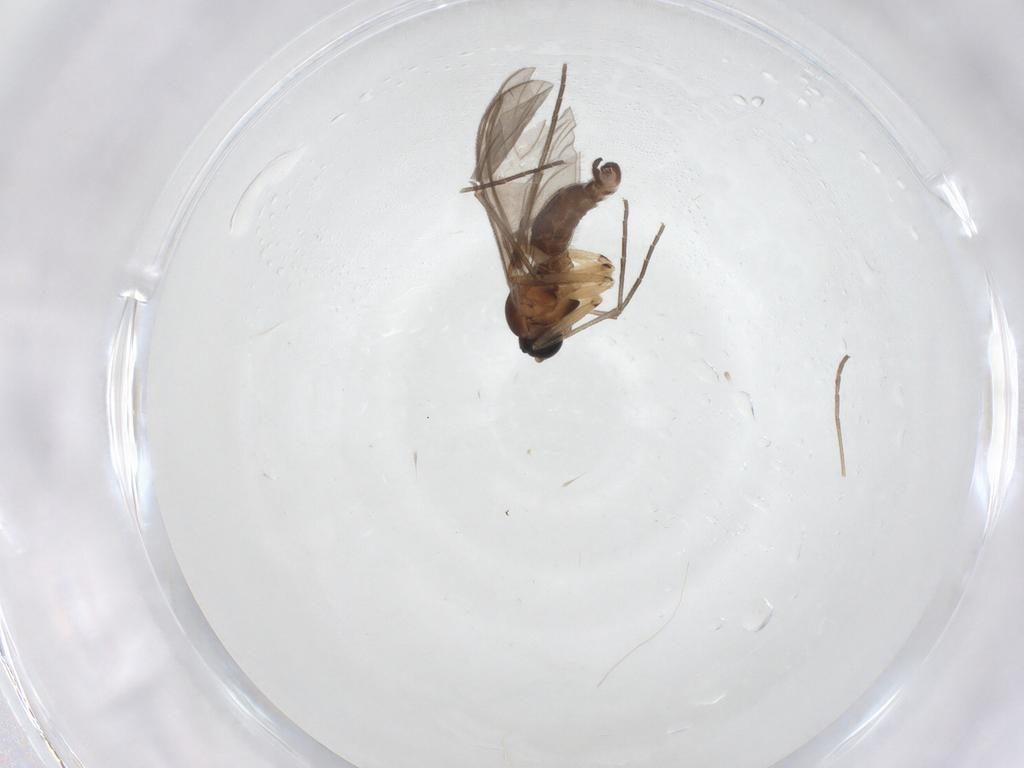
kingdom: Animalia
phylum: Arthropoda
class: Insecta
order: Diptera
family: Sciaridae
